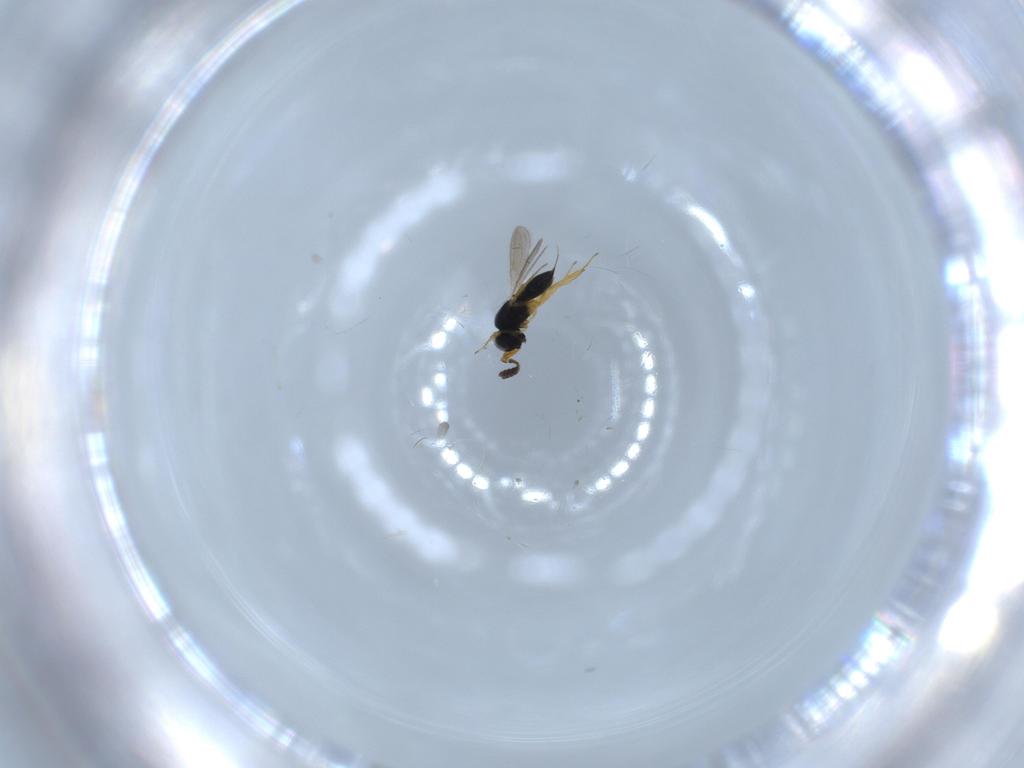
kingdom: Animalia
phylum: Arthropoda
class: Insecta
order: Hymenoptera
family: Scelionidae
